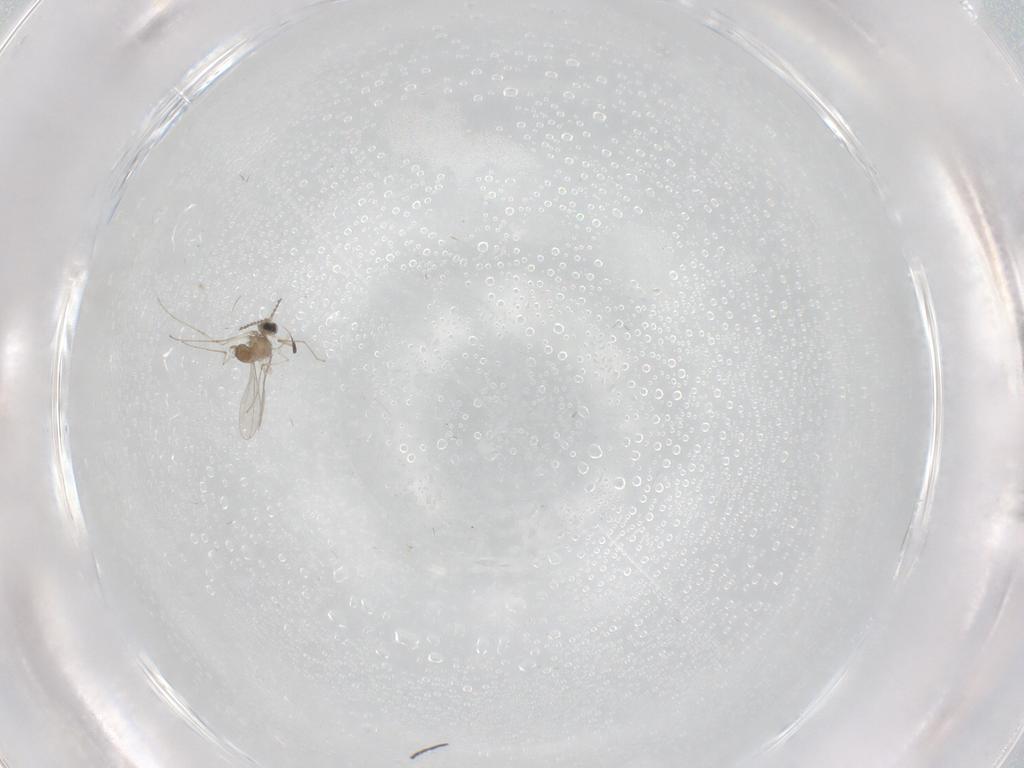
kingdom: Animalia
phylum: Arthropoda
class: Insecta
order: Diptera
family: Cecidomyiidae
